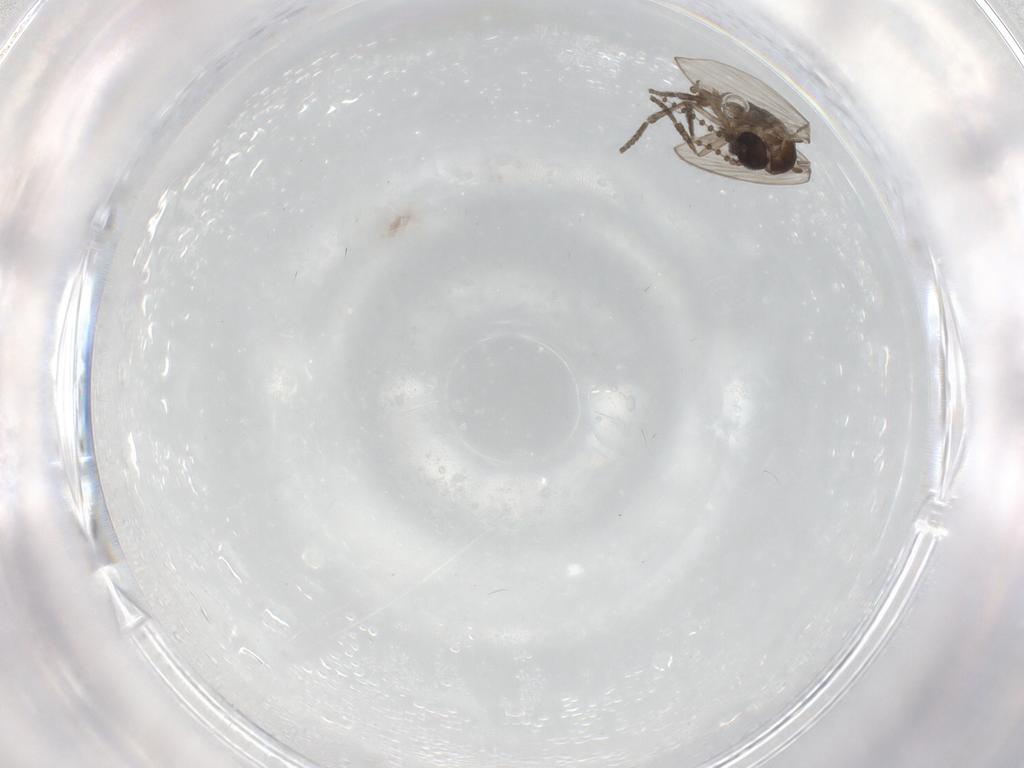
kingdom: Animalia
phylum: Arthropoda
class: Insecta
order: Diptera
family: Psychodidae
